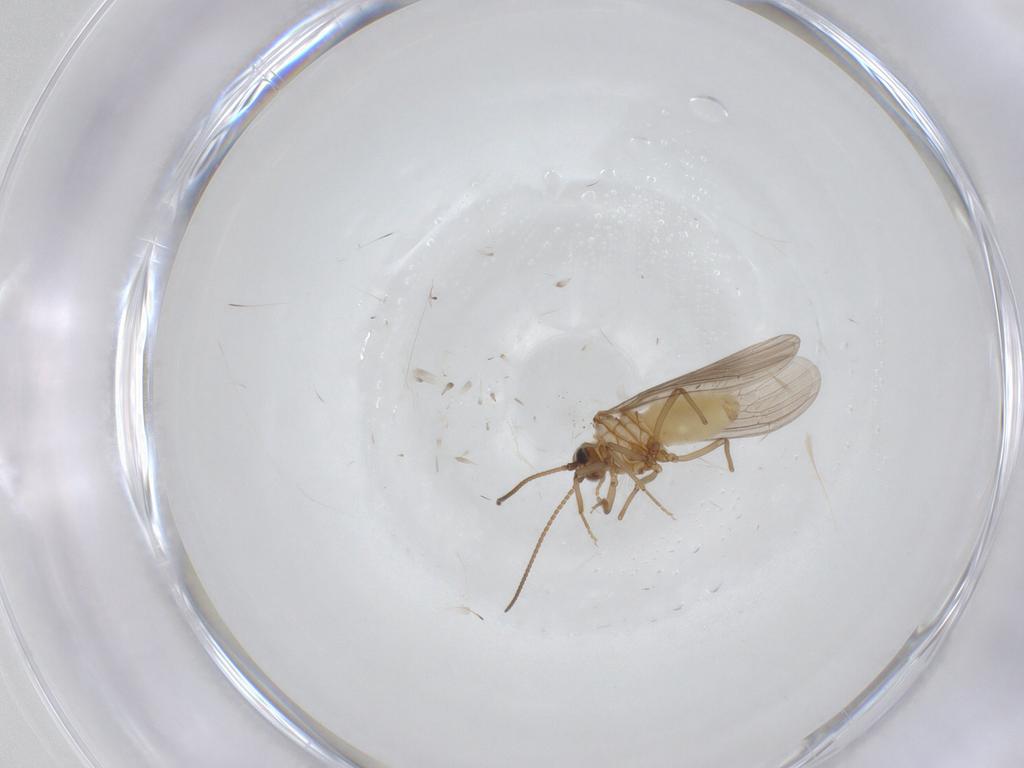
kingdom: Animalia
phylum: Arthropoda
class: Insecta
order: Neuroptera
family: Coniopterygidae
